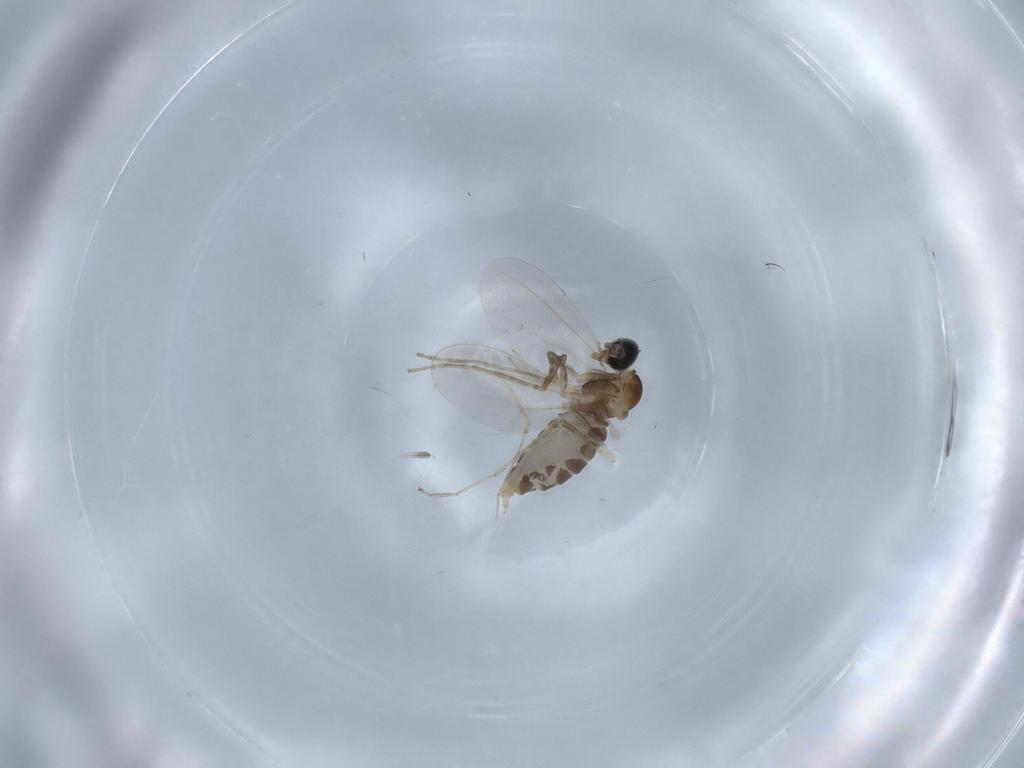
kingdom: Animalia
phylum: Arthropoda
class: Insecta
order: Diptera
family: Cecidomyiidae
